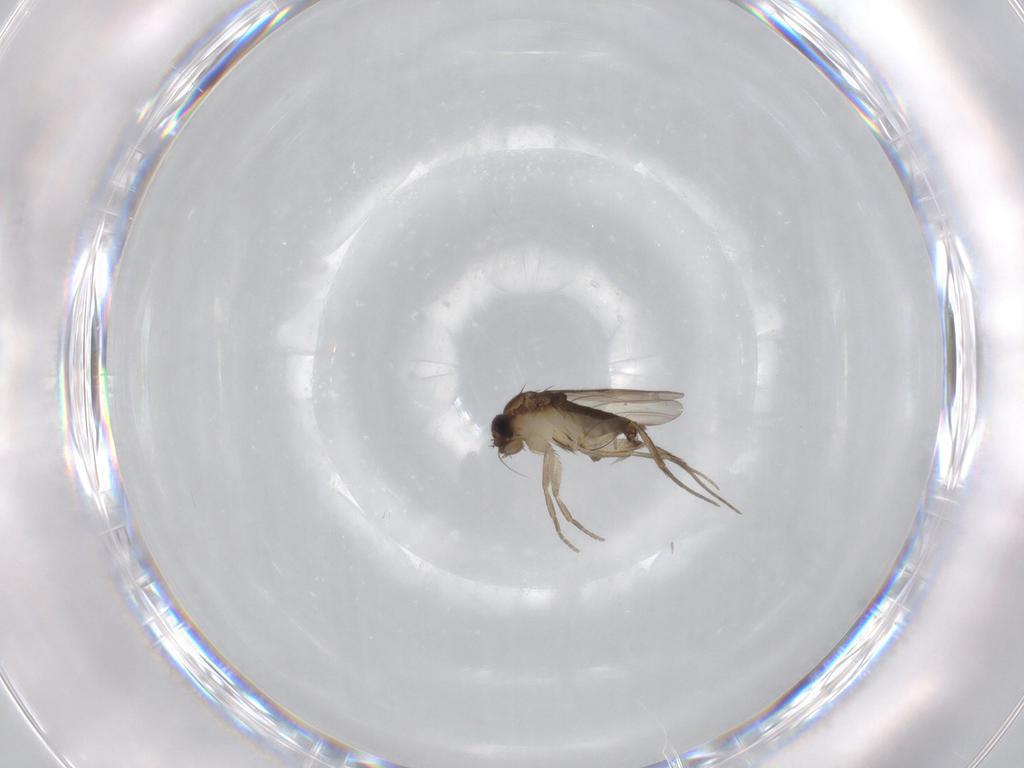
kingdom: Animalia
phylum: Arthropoda
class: Insecta
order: Diptera
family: Phoridae
